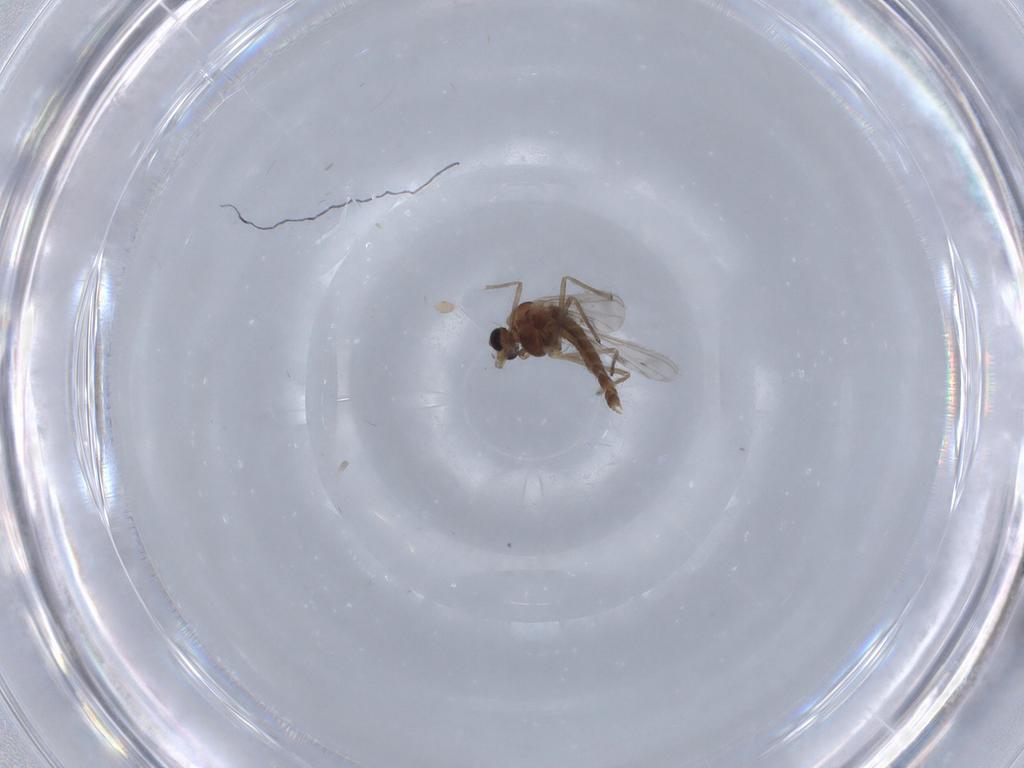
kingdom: Animalia
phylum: Arthropoda
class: Insecta
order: Diptera
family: Chironomidae
